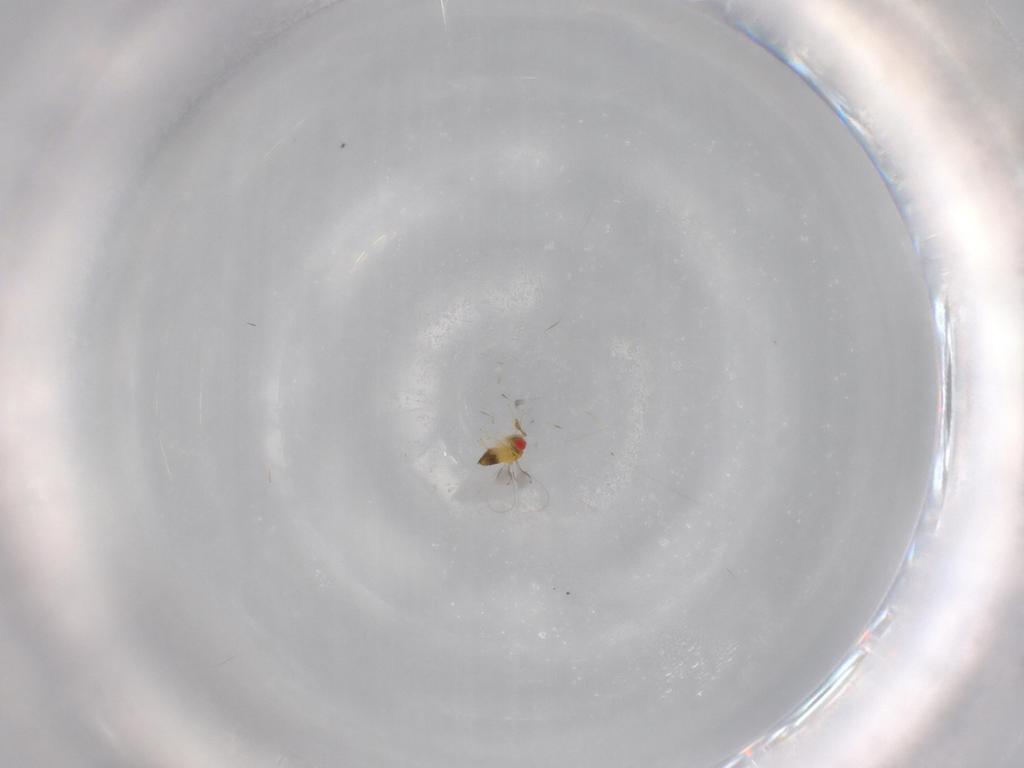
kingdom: Animalia
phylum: Arthropoda
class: Insecta
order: Hymenoptera
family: Trichogrammatidae
